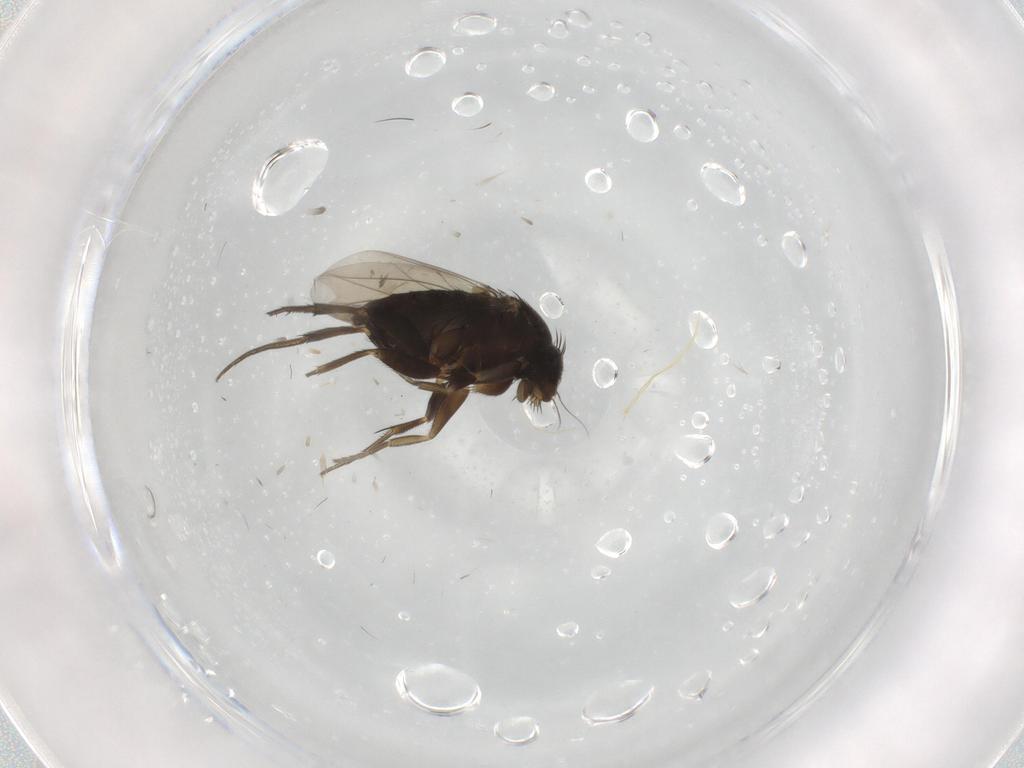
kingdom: Animalia
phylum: Arthropoda
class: Insecta
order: Diptera
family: Phoridae
